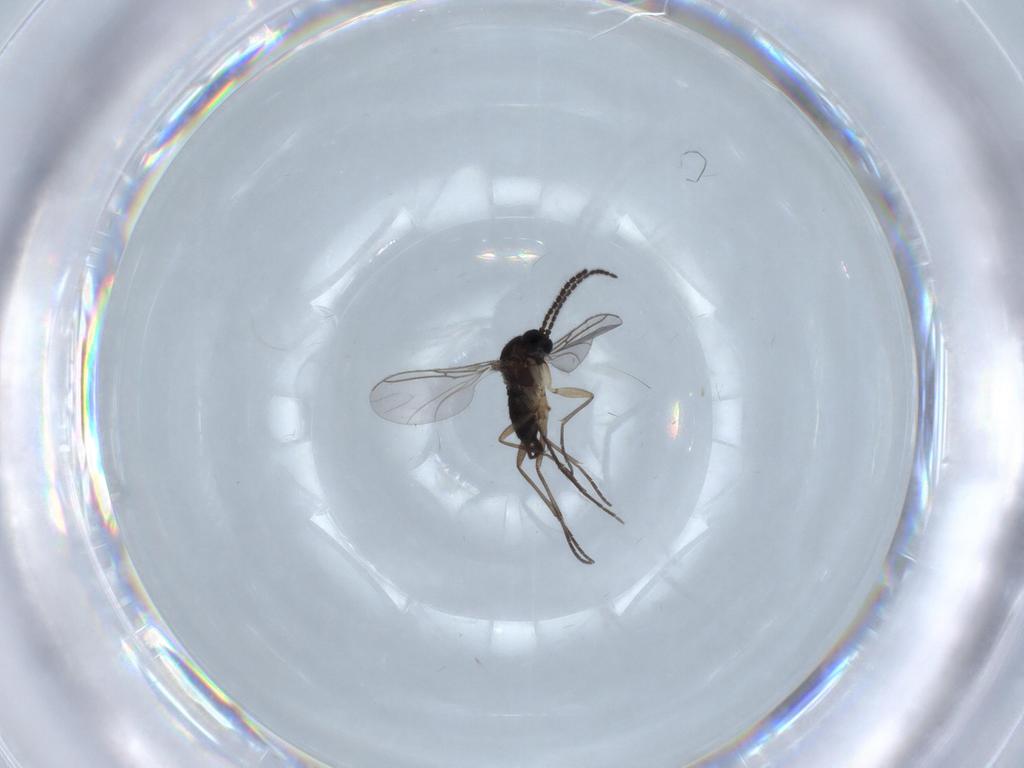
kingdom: Animalia
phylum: Arthropoda
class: Insecta
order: Diptera
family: Sciaridae
